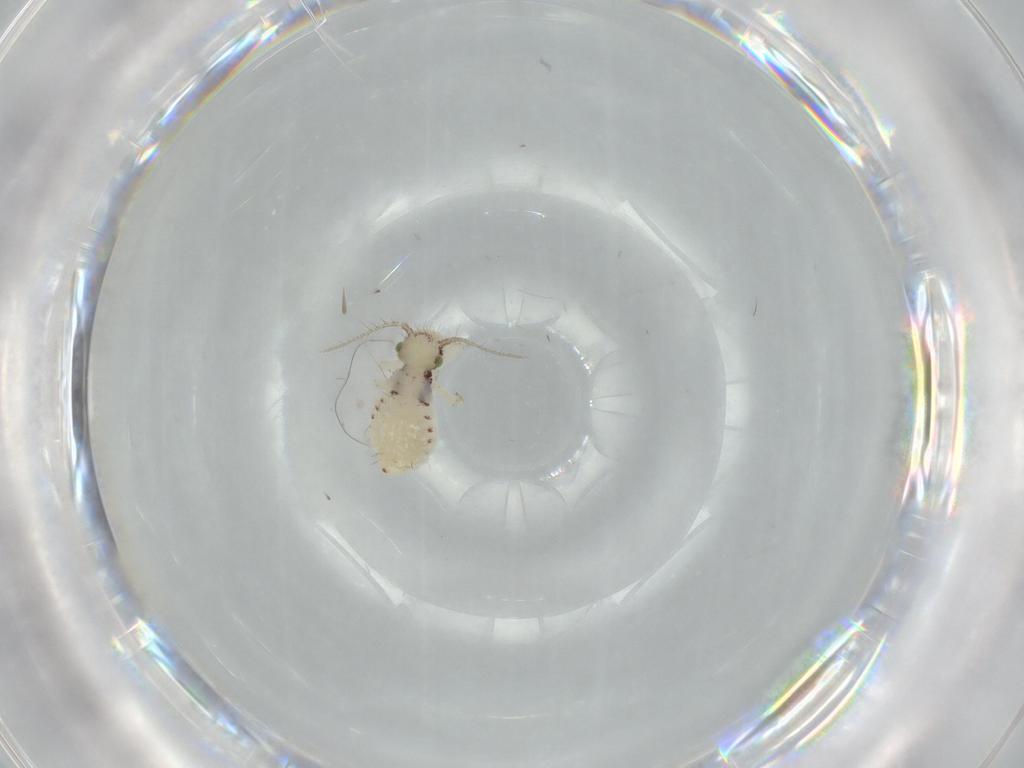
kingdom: Animalia
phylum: Arthropoda
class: Insecta
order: Psocodea
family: Pseudocaeciliidae
